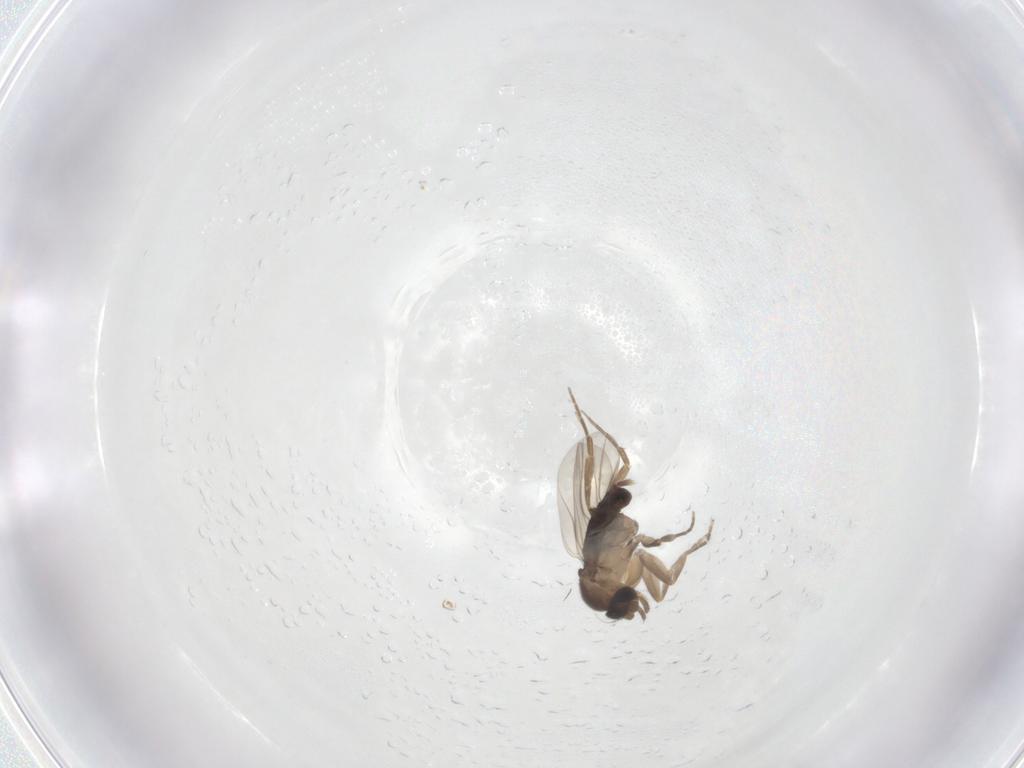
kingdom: Animalia
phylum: Arthropoda
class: Insecta
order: Diptera
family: Phoridae
